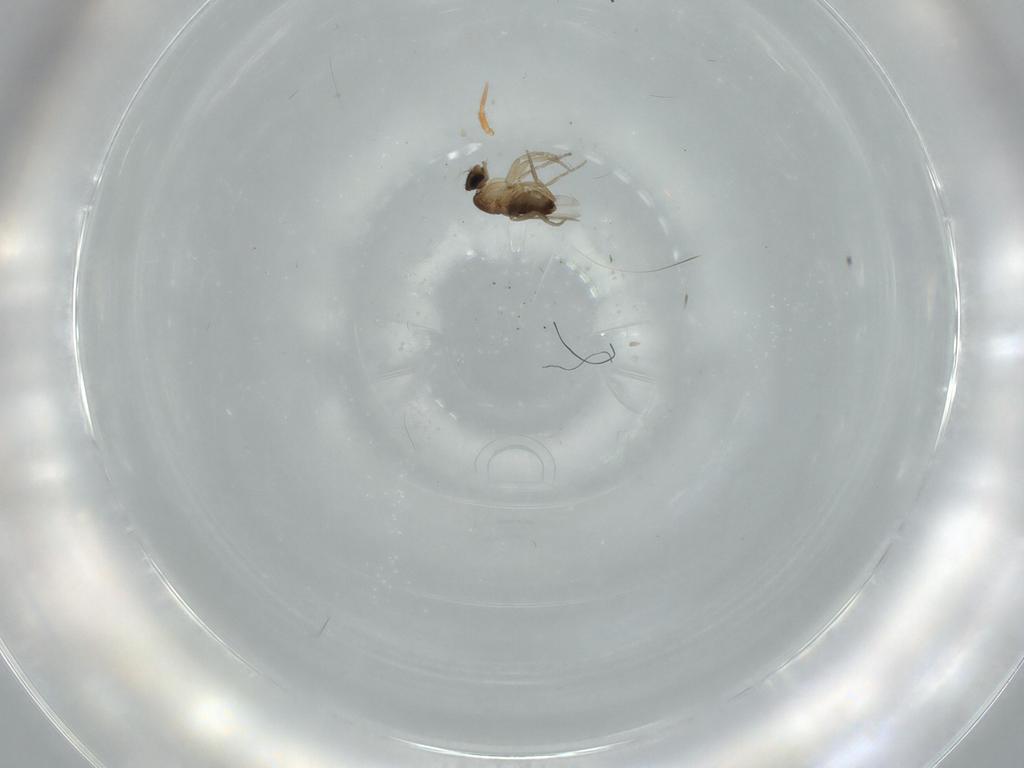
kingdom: Animalia
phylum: Arthropoda
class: Insecta
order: Diptera
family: Phoridae
